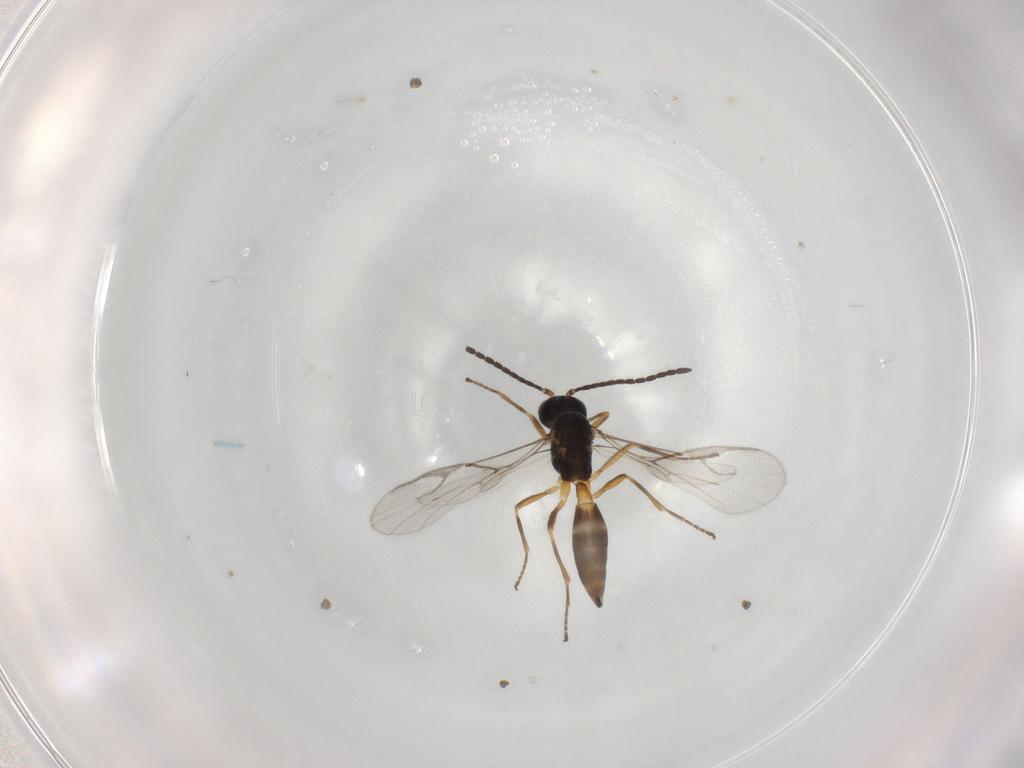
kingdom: Animalia
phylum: Arthropoda
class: Insecta
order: Hymenoptera
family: Braconidae
